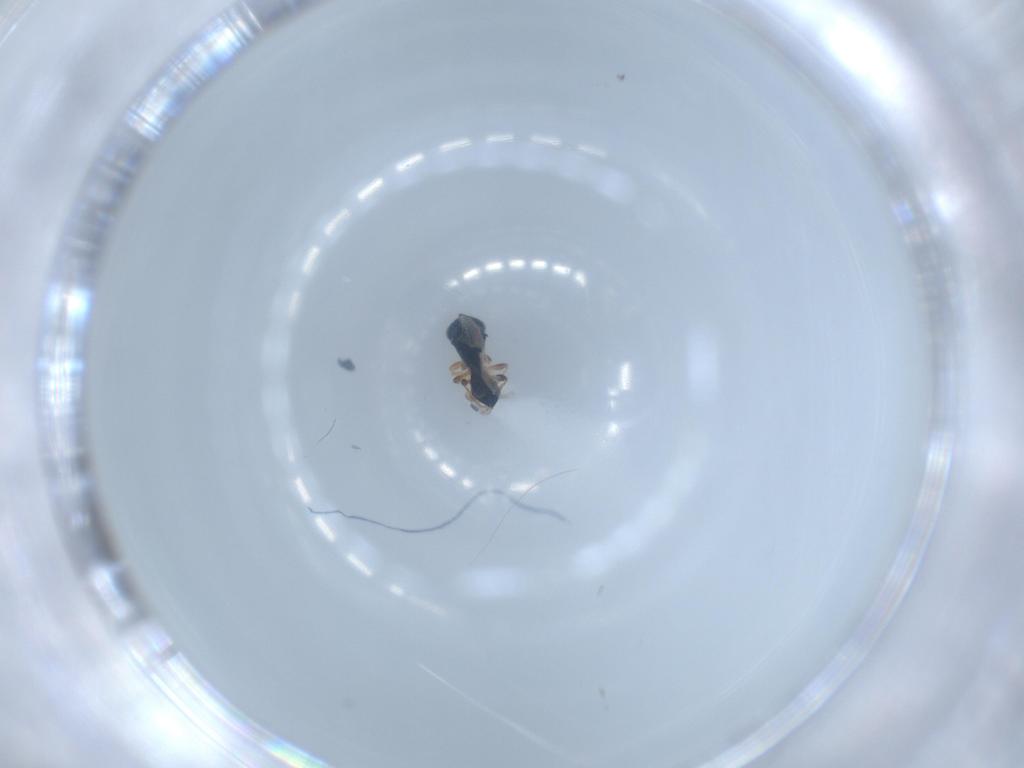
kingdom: Animalia
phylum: Arthropoda
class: Insecta
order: Hymenoptera
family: Platygastridae
